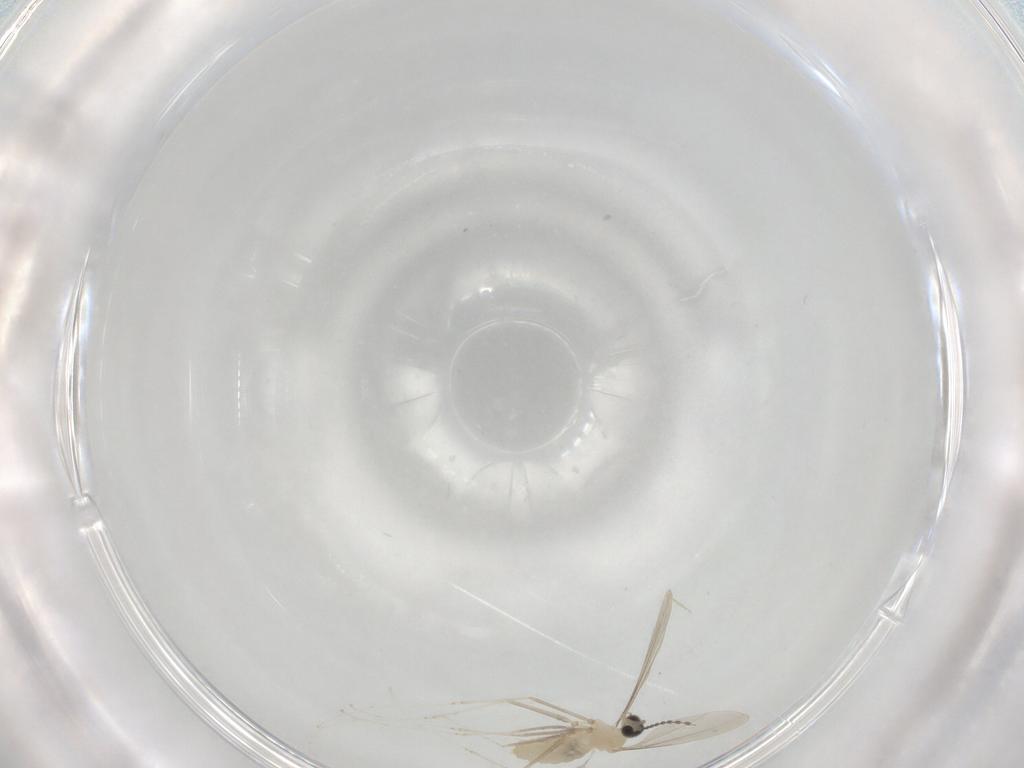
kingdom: Animalia
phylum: Arthropoda
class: Insecta
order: Diptera
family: Cecidomyiidae
